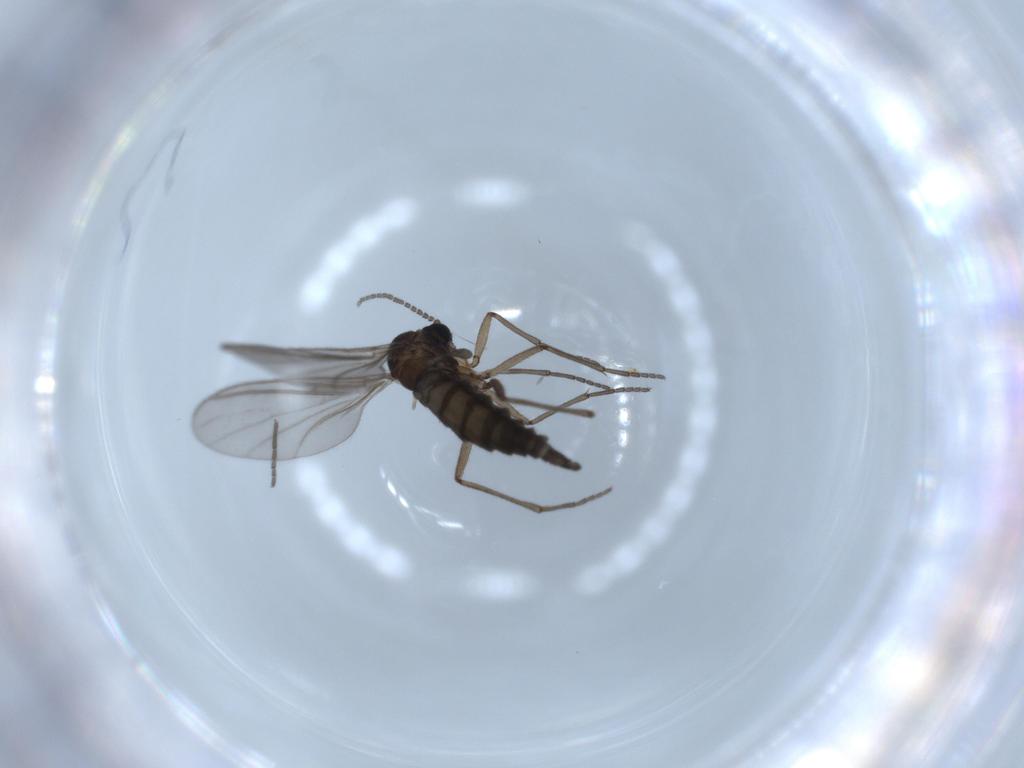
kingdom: Animalia
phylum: Arthropoda
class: Insecta
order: Diptera
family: Sciaridae
